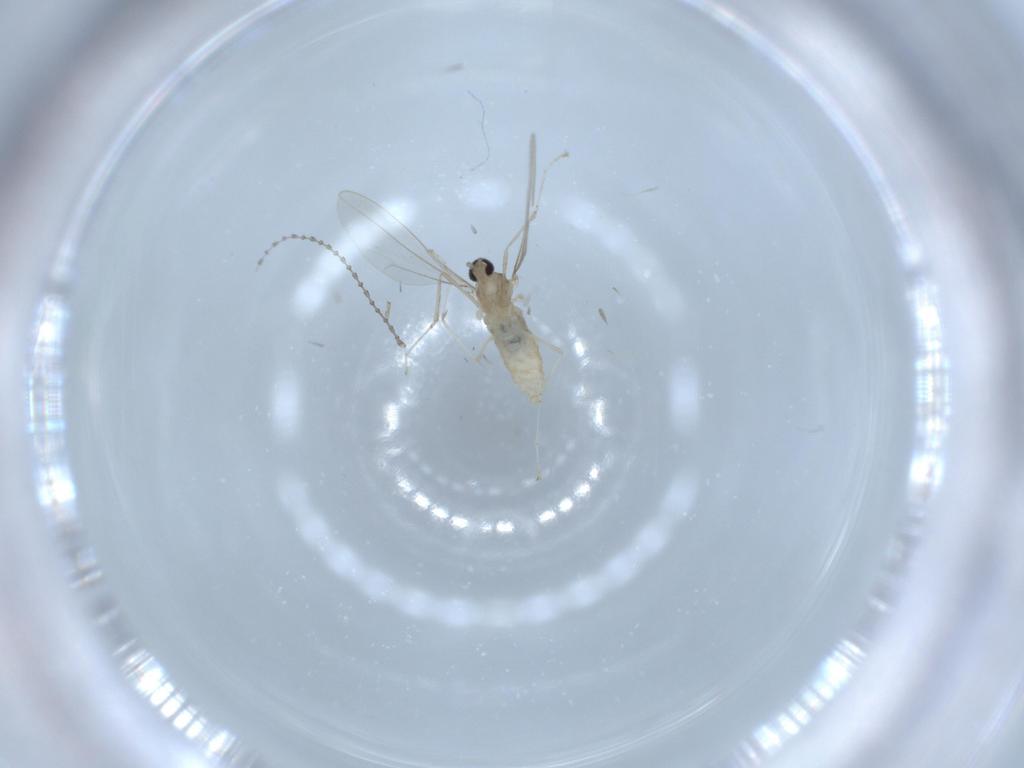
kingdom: Animalia
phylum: Arthropoda
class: Insecta
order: Diptera
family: Cecidomyiidae
